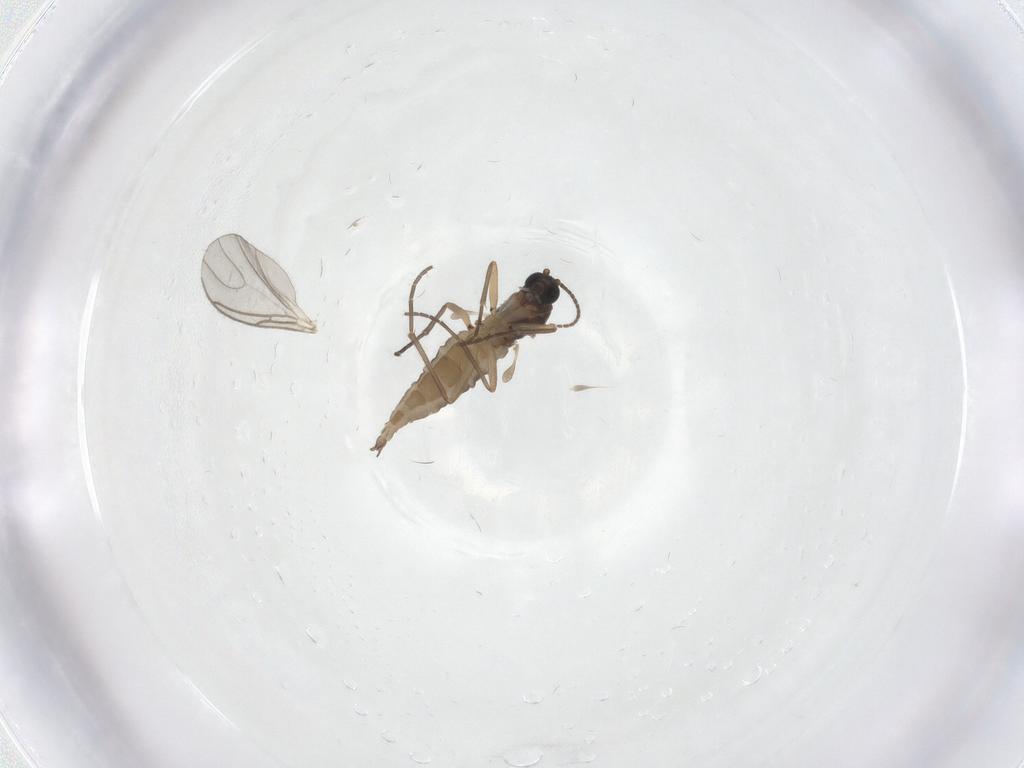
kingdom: Animalia
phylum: Arthropoda
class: Insecta
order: Diptera
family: Sciaridae
